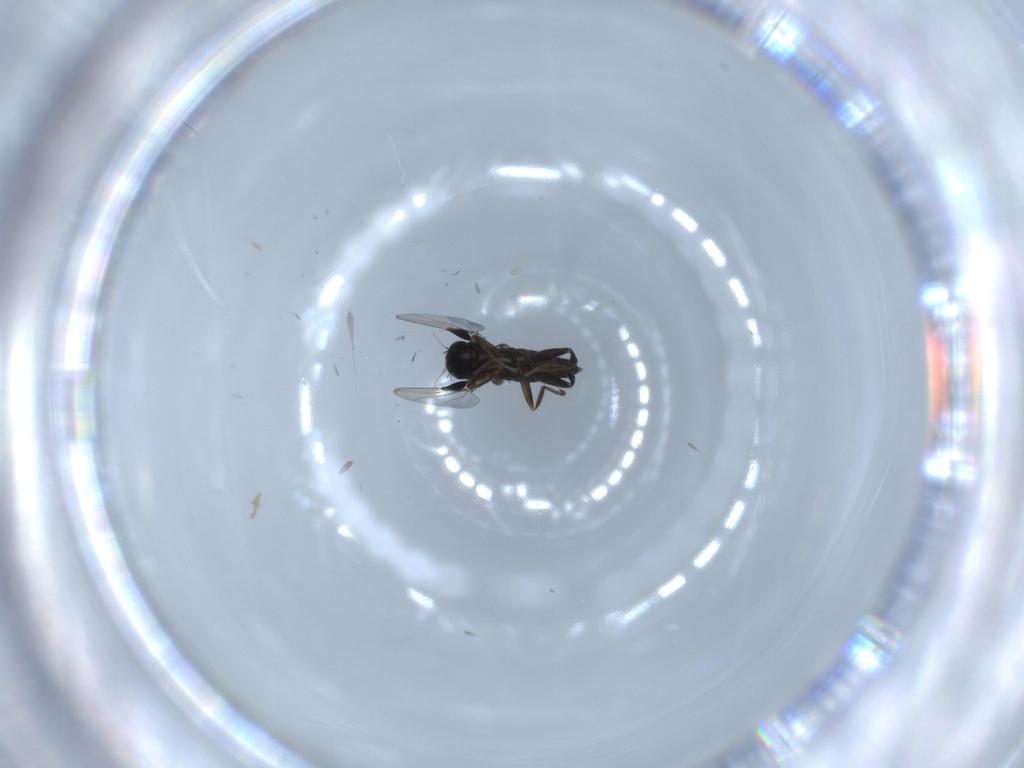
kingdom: Animalia
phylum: Arthropoda
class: Insecta
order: Diptera
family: Phoridae
